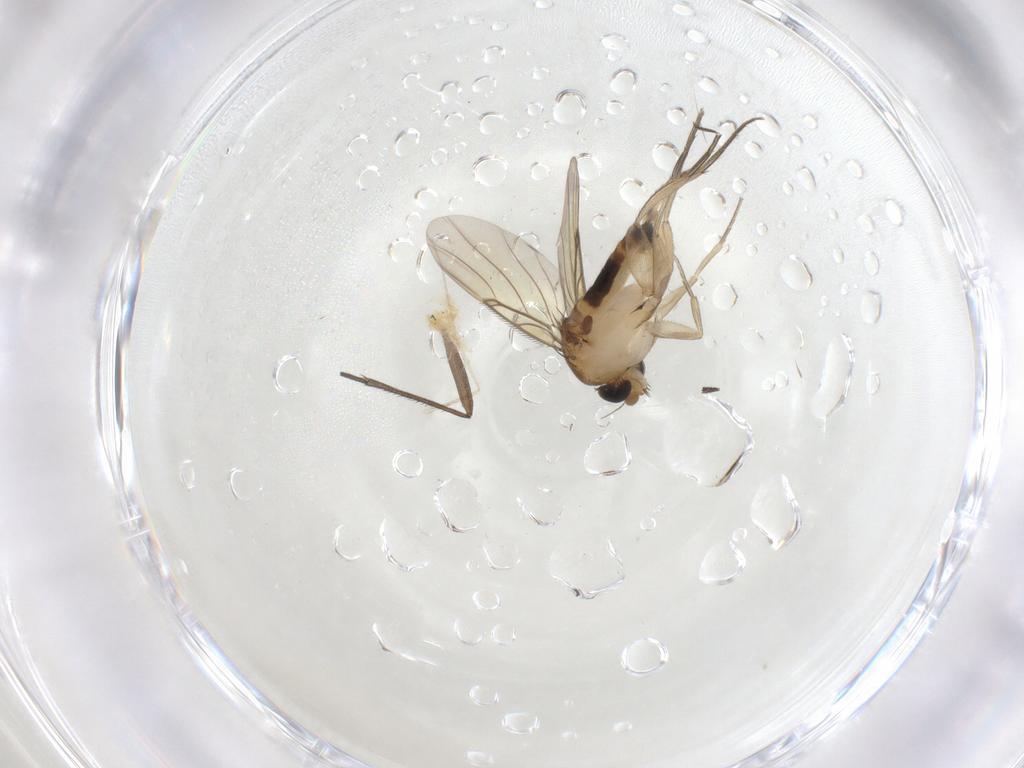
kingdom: Animalia
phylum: Arthropoda
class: Insecta
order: Diptera
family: Phoridae
